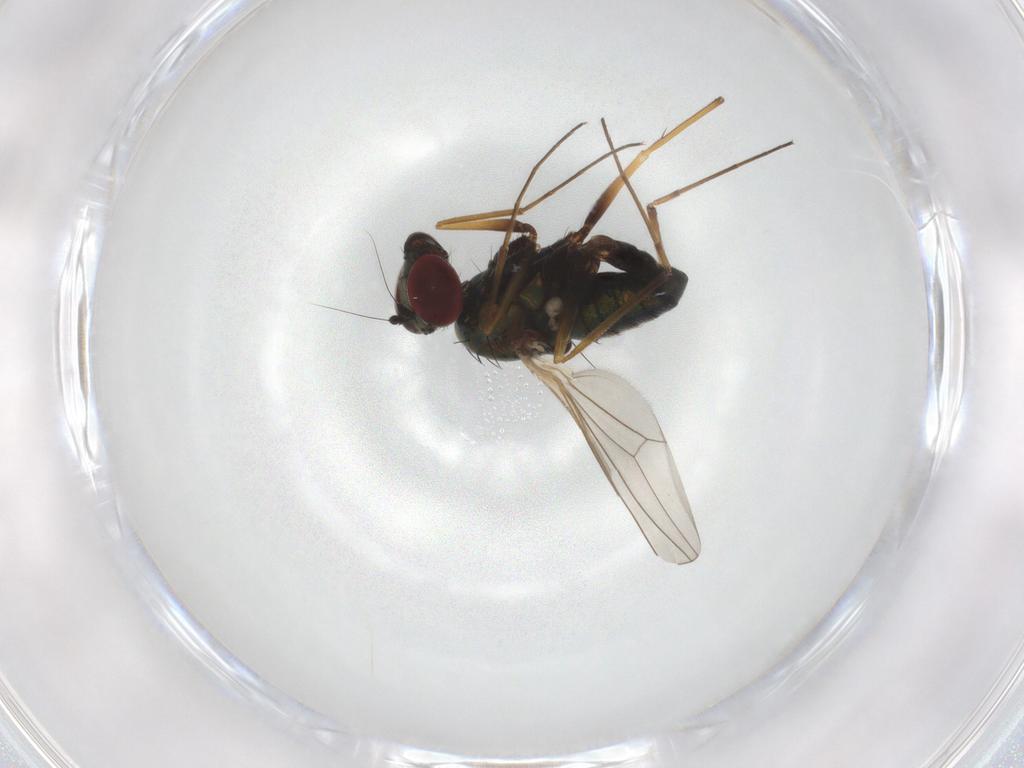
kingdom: Animalia
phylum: Arthropoda
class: Insecta
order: Diptera
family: Dolichopodidae
